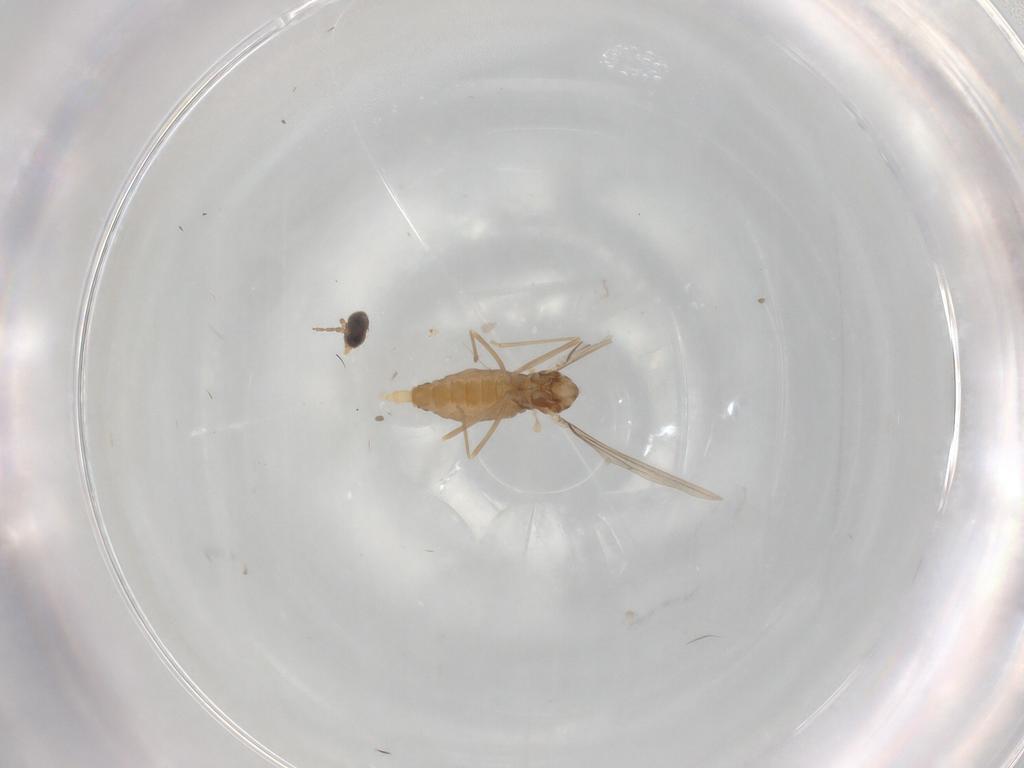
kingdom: Animalia
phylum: Arthropoda
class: Insecta
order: Diptera
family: Cecidomyiidae
